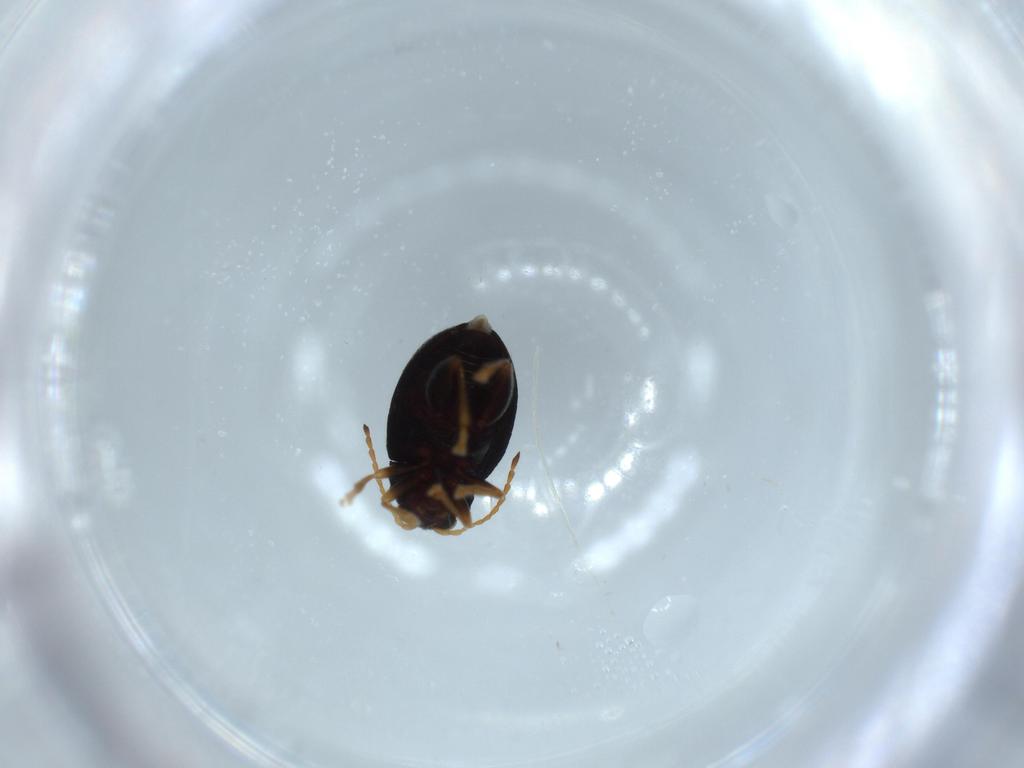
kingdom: Animalia
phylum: Arthropoda
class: Insecta
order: Coleoptera
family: Chrysomelidae
